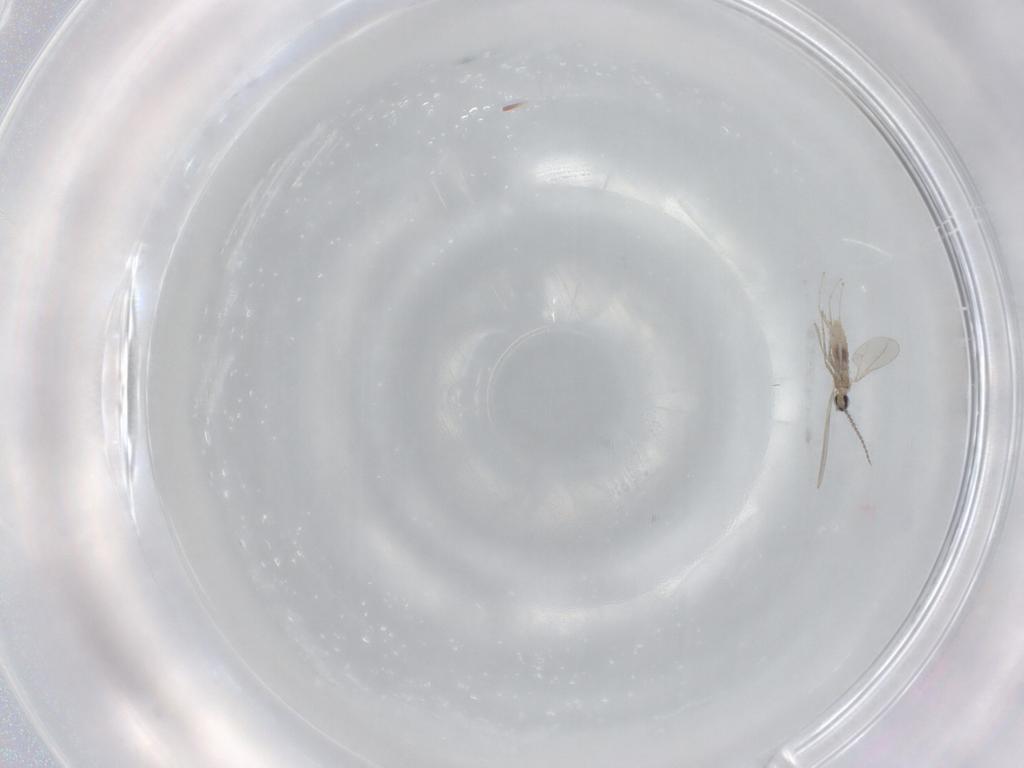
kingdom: Animalia
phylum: Arthropoda
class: Insecta
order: Diptera
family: Cecidomyiidae
